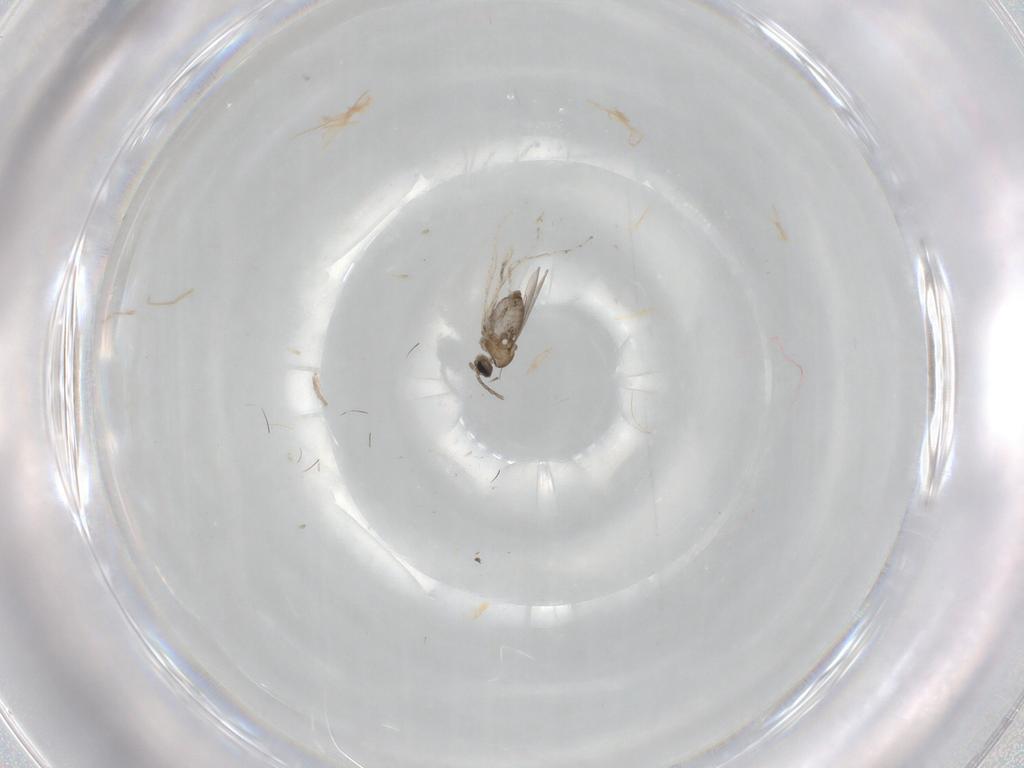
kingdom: Animalia
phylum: Arthropoda
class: Insecta
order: Diptera
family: Cecidomyiidae
